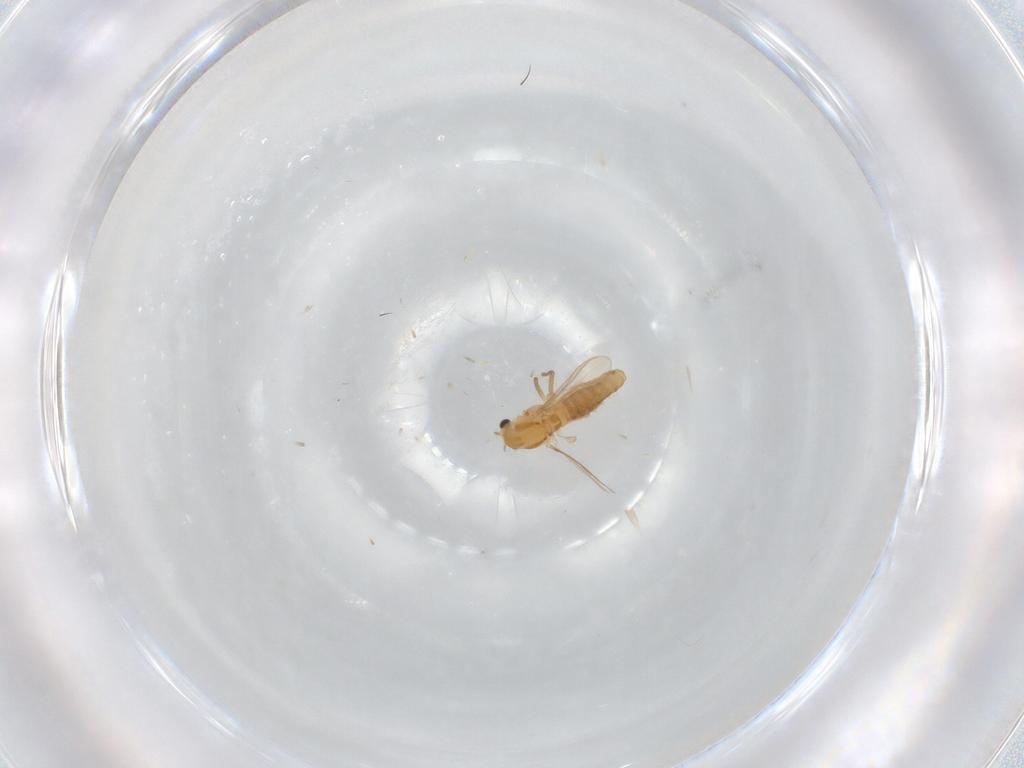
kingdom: Animalia
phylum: Arthropoda
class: Insecta
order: Diptera
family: Chironomidae
